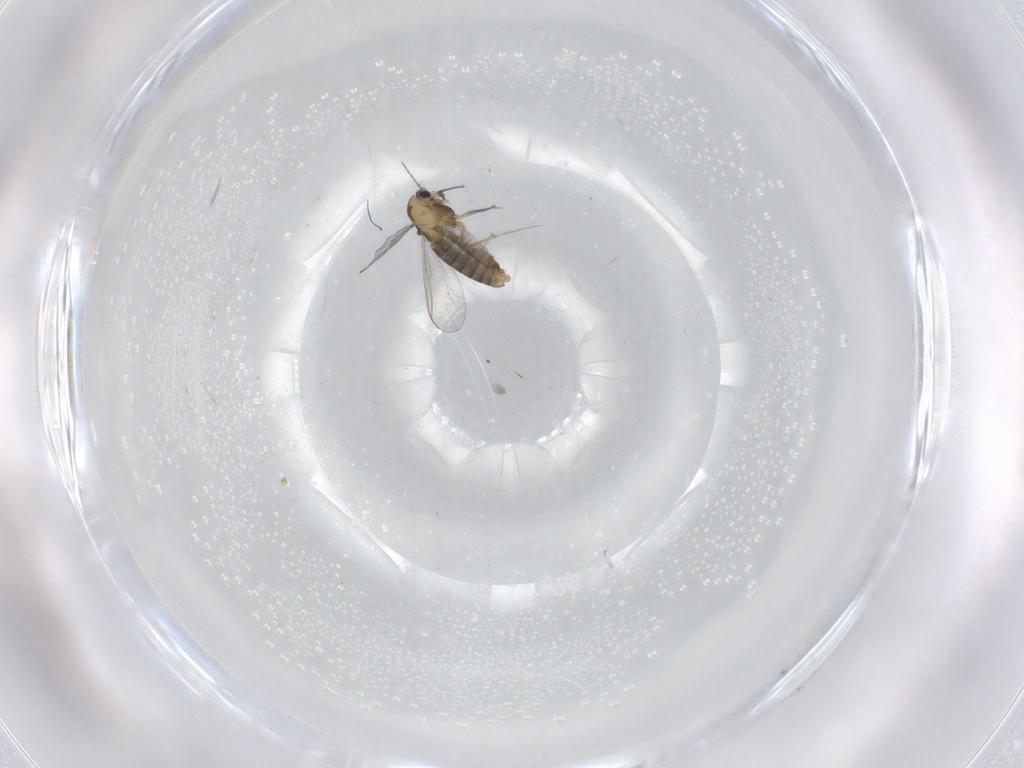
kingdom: Animalia
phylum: Arthropoda
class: Insecta
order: Diptera
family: Chironomidae
